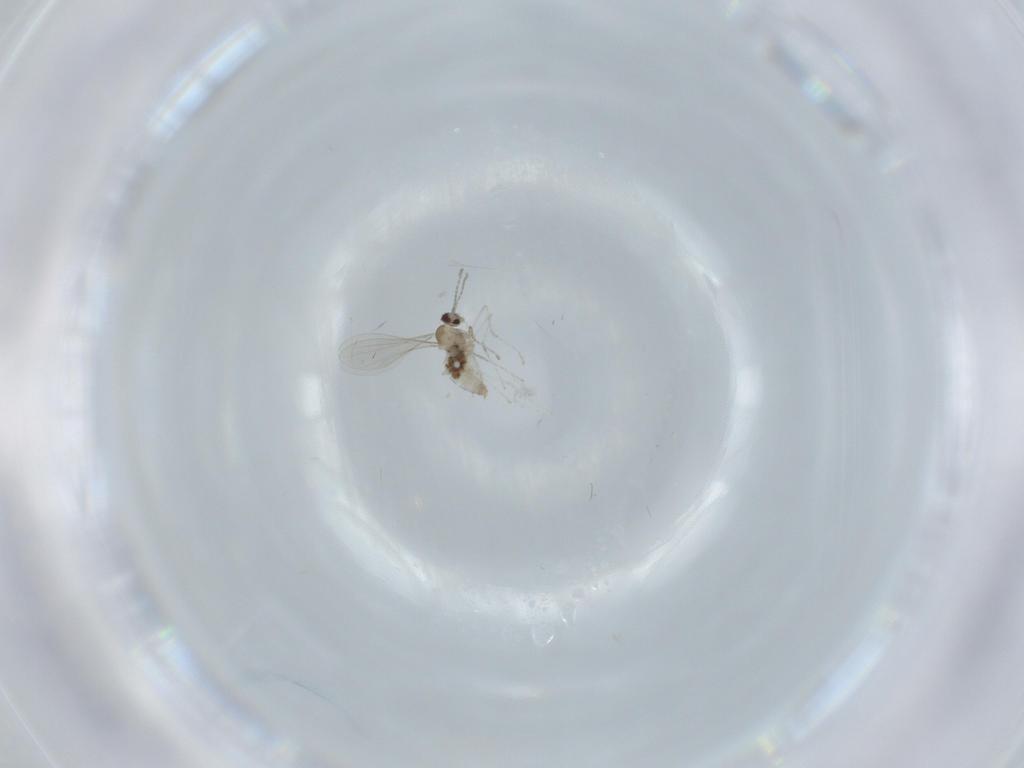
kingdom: Animalia
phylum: Arthropoda
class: Insecta
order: Diptera
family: Cecidomyiidae
